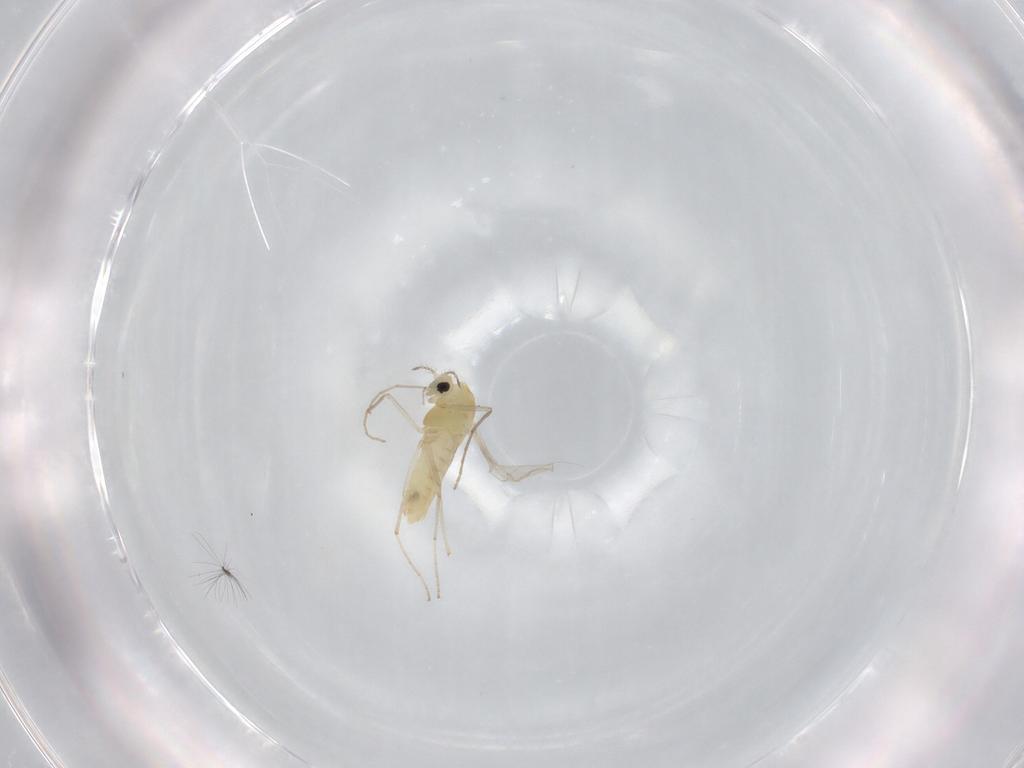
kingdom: Animalia
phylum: Arthropoda
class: Insecta
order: Diptera
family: Chironomidae
